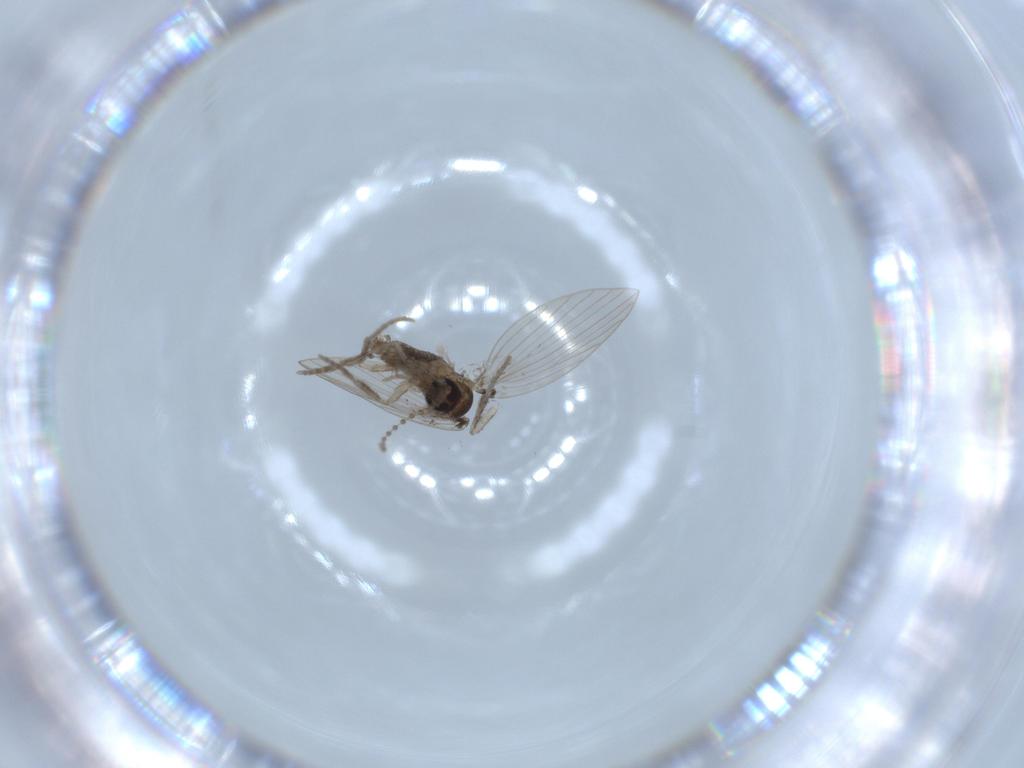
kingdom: Animalia
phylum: Arthropoda
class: Insecta
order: Diptera
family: Psychodidae
